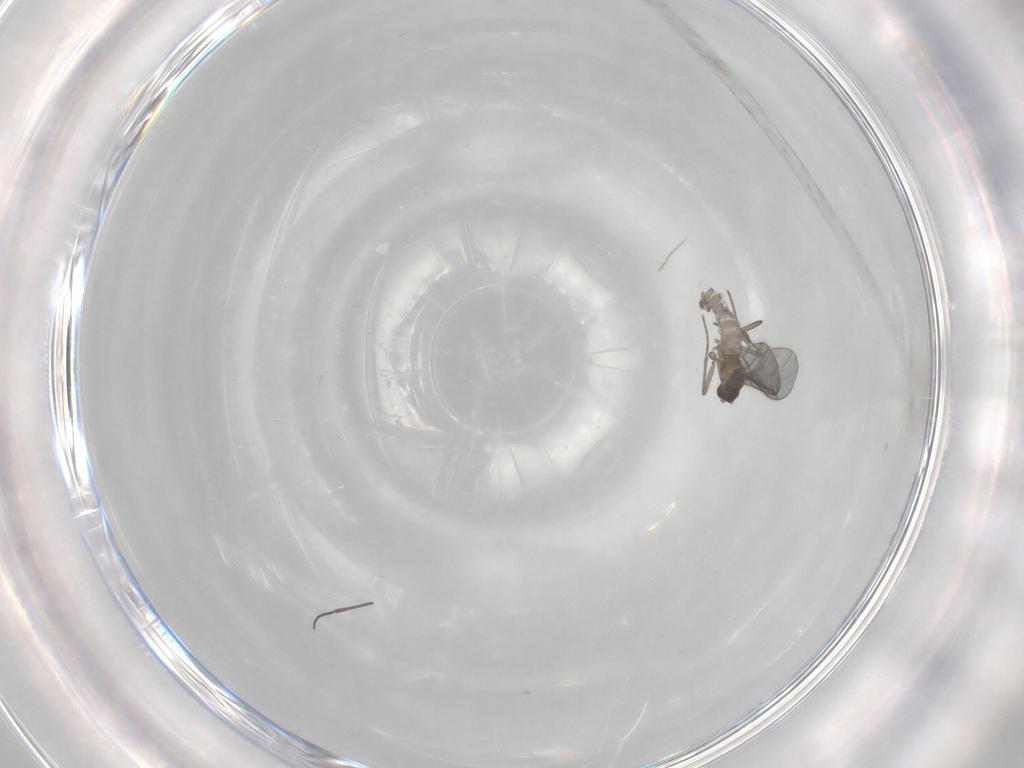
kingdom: Animalia
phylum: Arthropoda
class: Insecta
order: Diptera
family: Sciaridae
